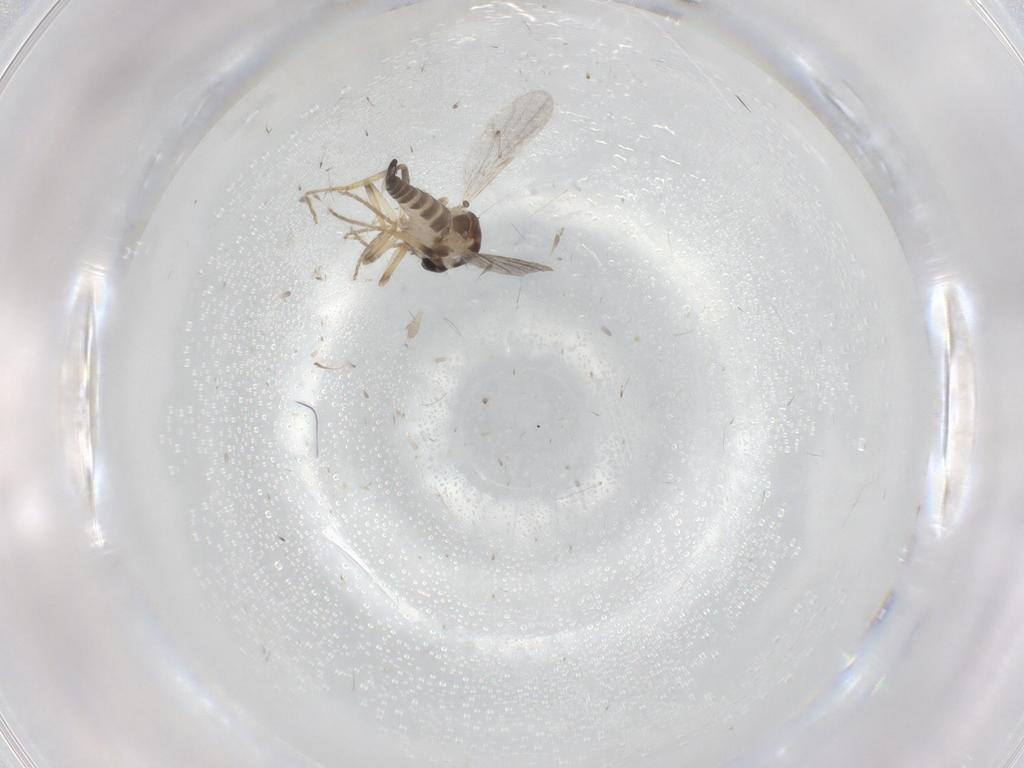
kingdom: Animalia
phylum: Arthropoda
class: Insecta
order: Diptera
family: Ceratopogonidae
